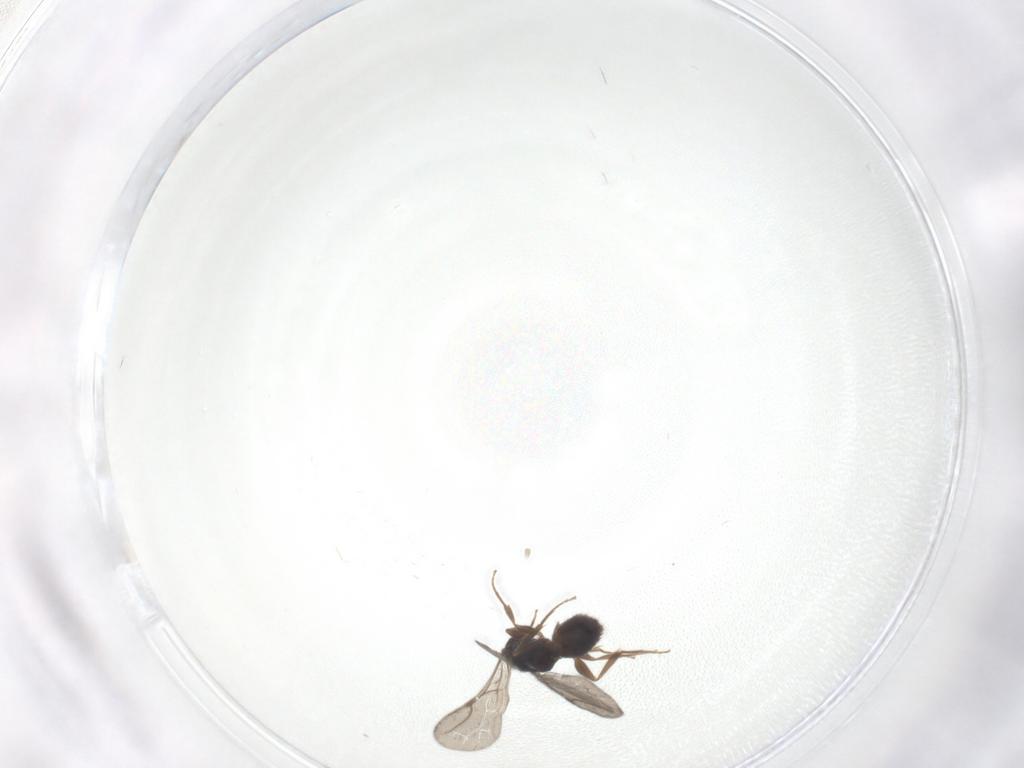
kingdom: Animalia
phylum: Arthropoda
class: Insecta
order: Hymenoptera
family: Bethylidae
